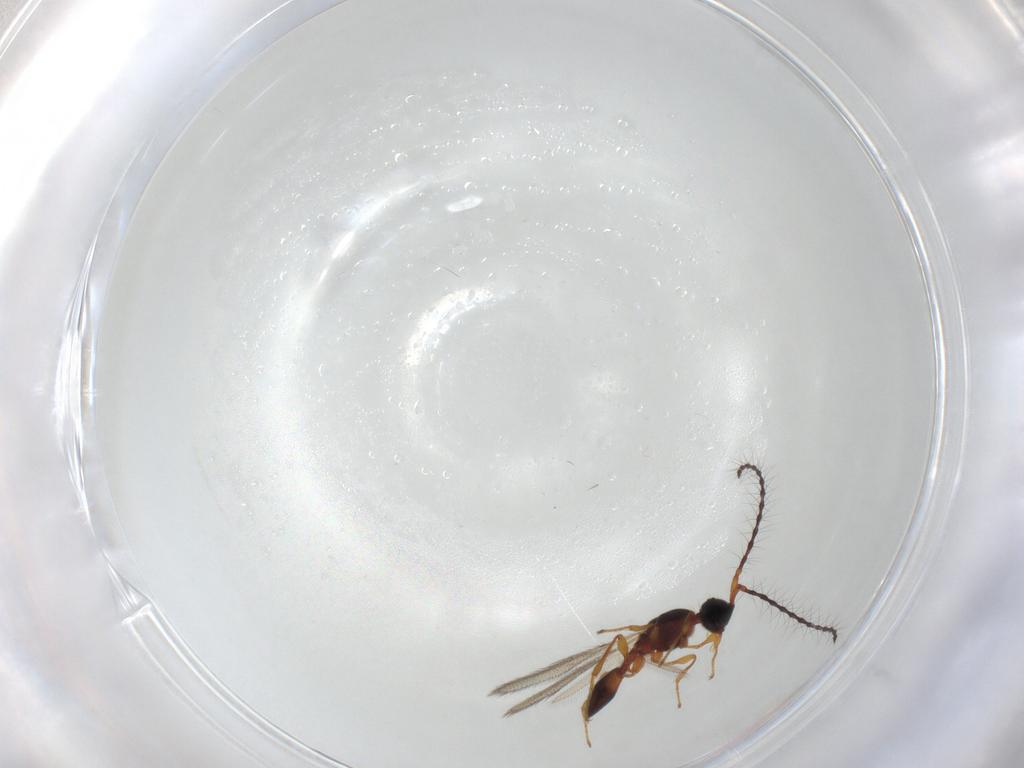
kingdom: Animalia
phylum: Arthropoda
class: Insecta
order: Hymenoptera
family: Diapriidae
